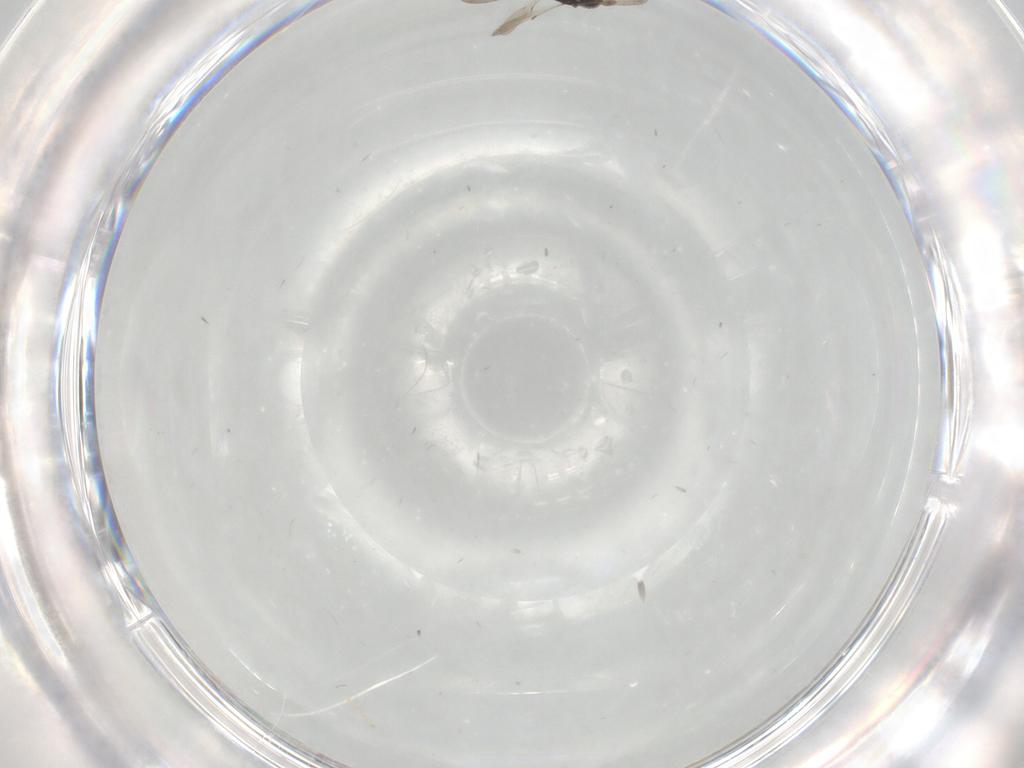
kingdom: Animalia
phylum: Arthropoda
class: Insecta
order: Hymenoptera
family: Scelionidae
